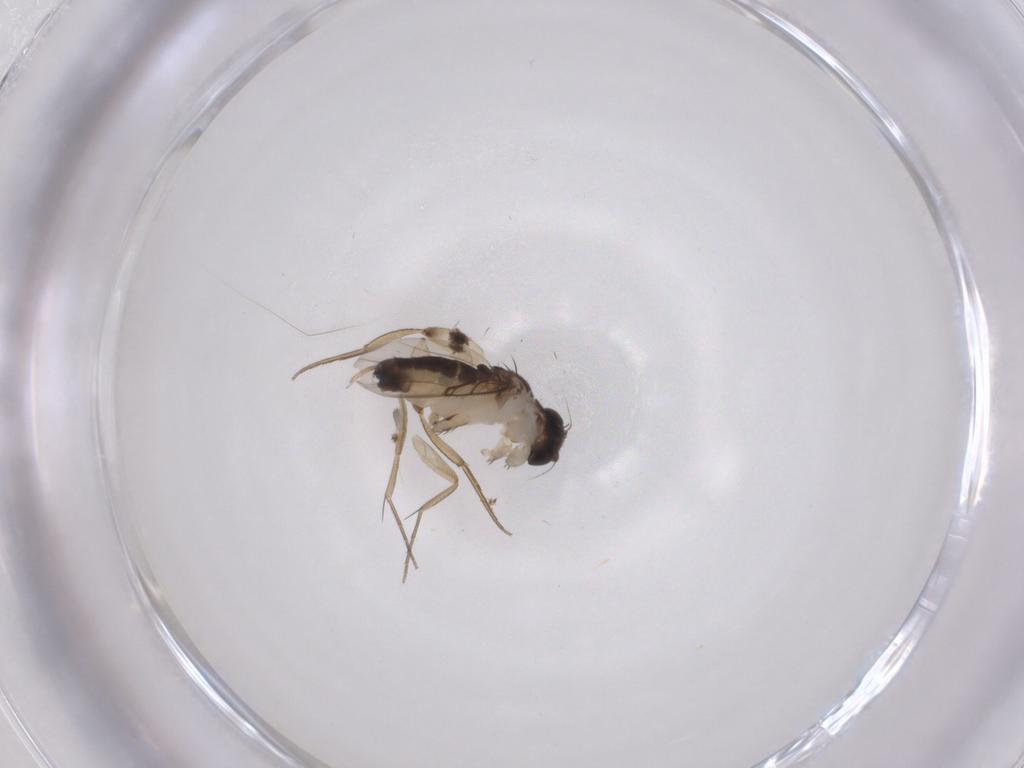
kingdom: Animalia
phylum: Arthropoda
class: Insecta
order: Diptera
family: Phoridae
